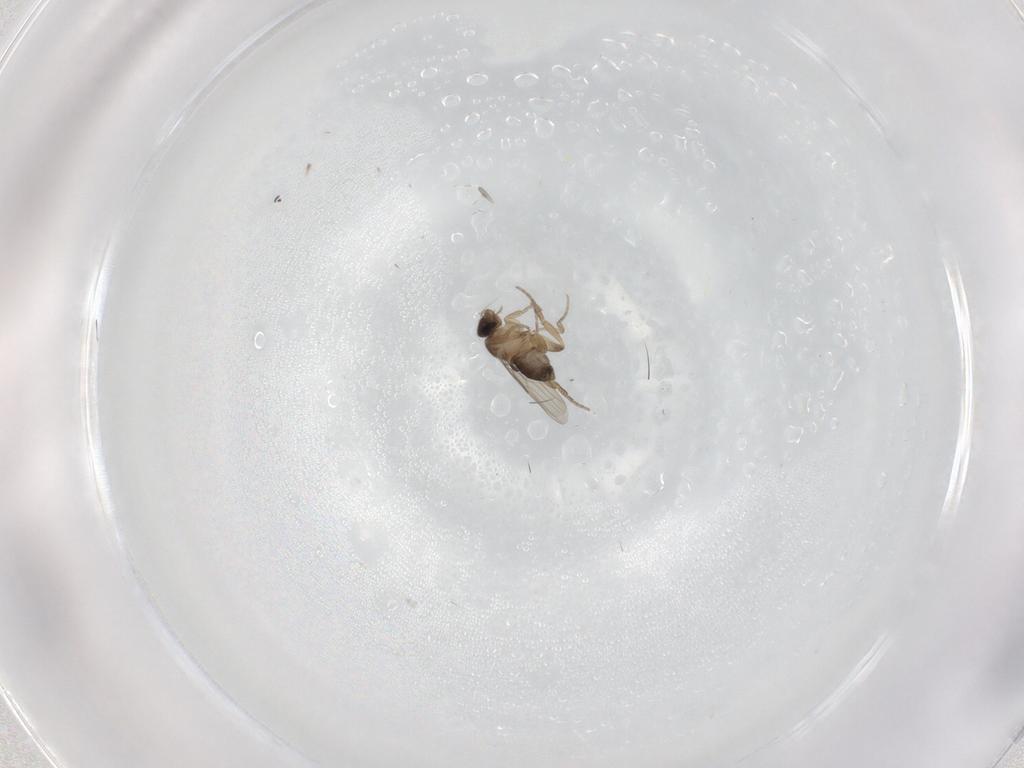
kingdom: Animalia
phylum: Arthropoda
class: Insecta
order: Diptera
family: Phoridae
